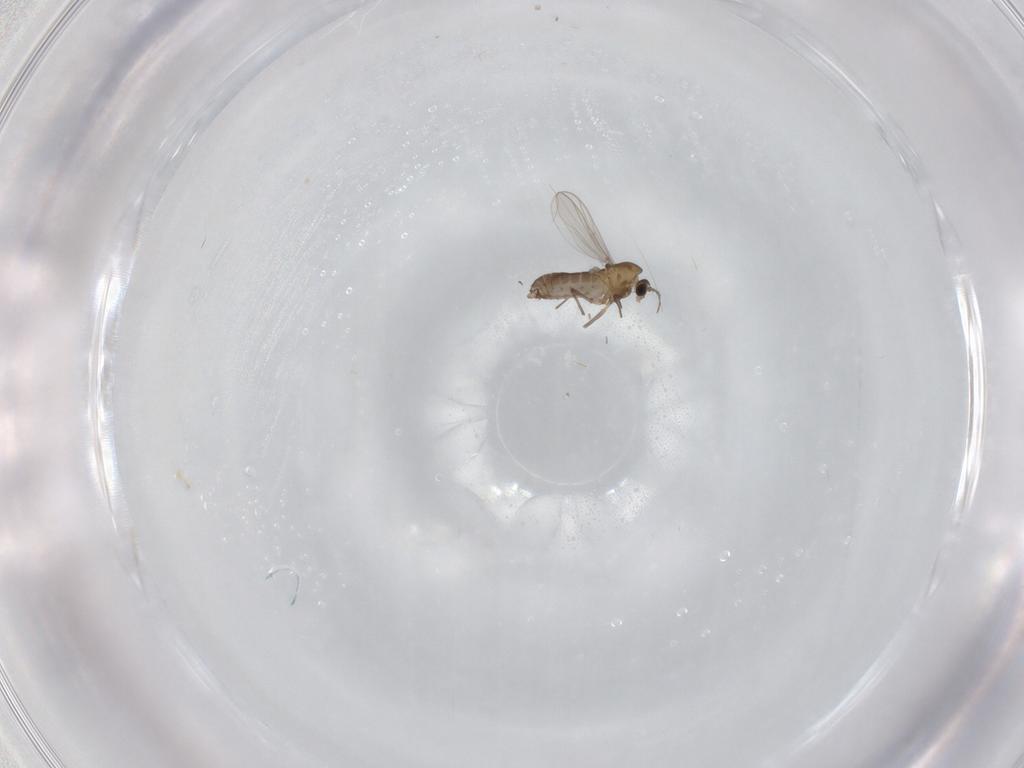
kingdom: Animalia
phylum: Arthropoda
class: Insecta
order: Diptera
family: Chironomidae
